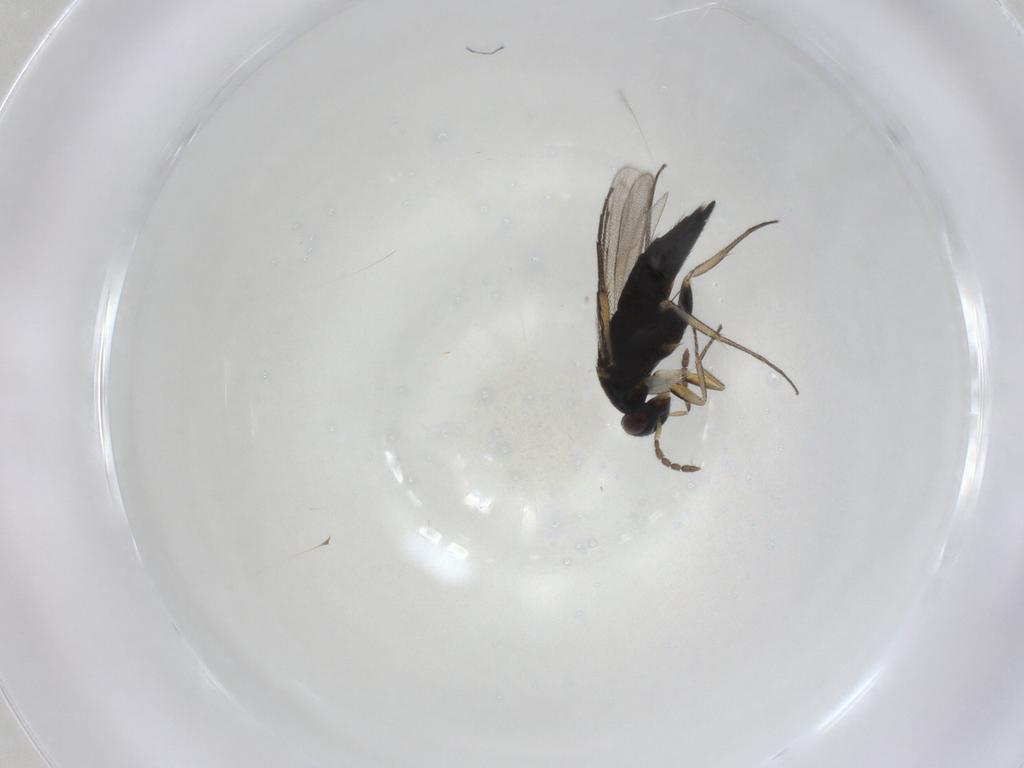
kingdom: Animalia
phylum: Arthropoda
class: Insecta
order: Hymenoptera
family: Eulophidae
